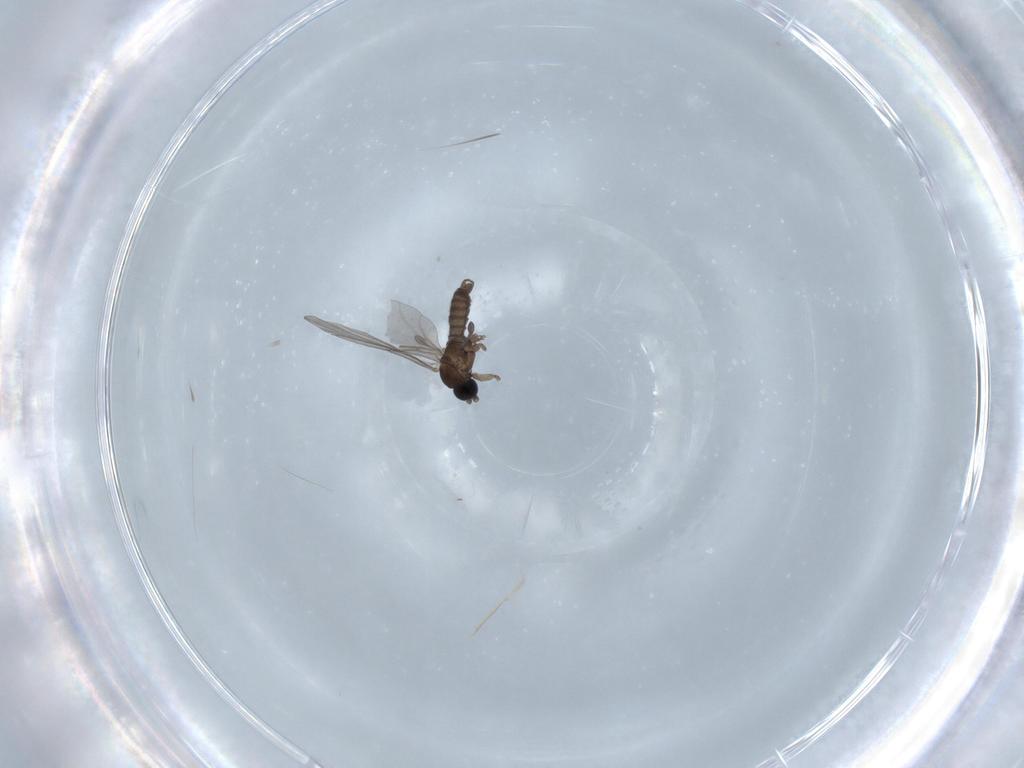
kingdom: Animalia
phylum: Arthropoda
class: Insecta
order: Diptera
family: Sciaridae
